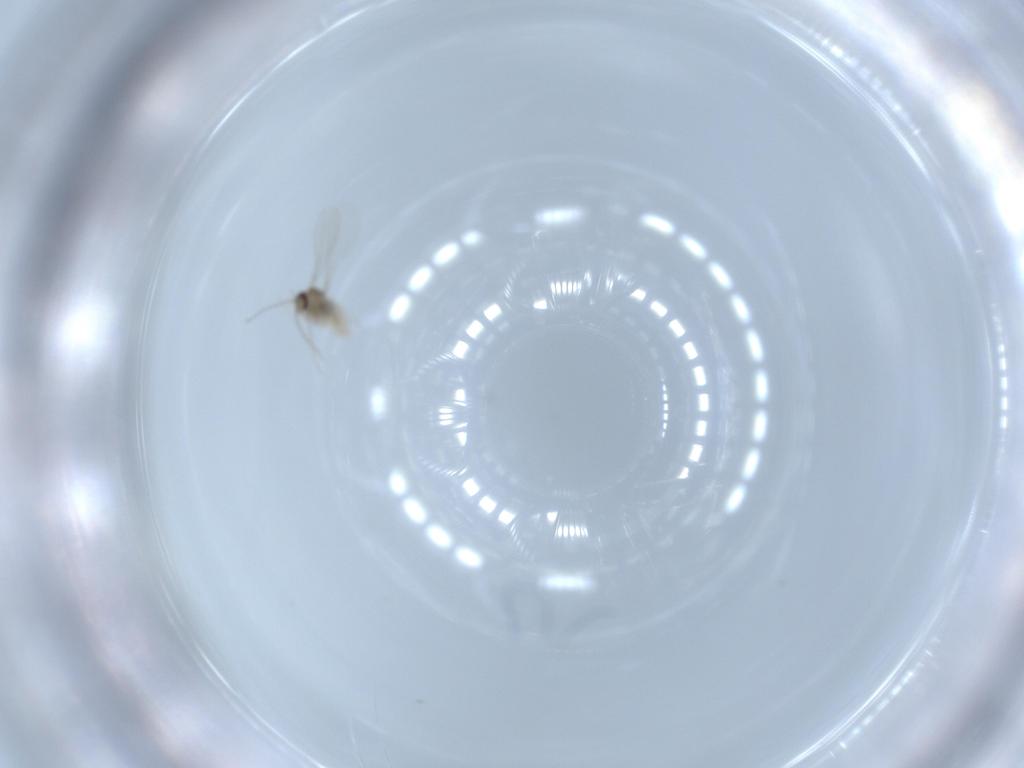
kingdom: Animalia
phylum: Arthropoda
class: Insecta
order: Diptera
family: Cecidomyiidae
